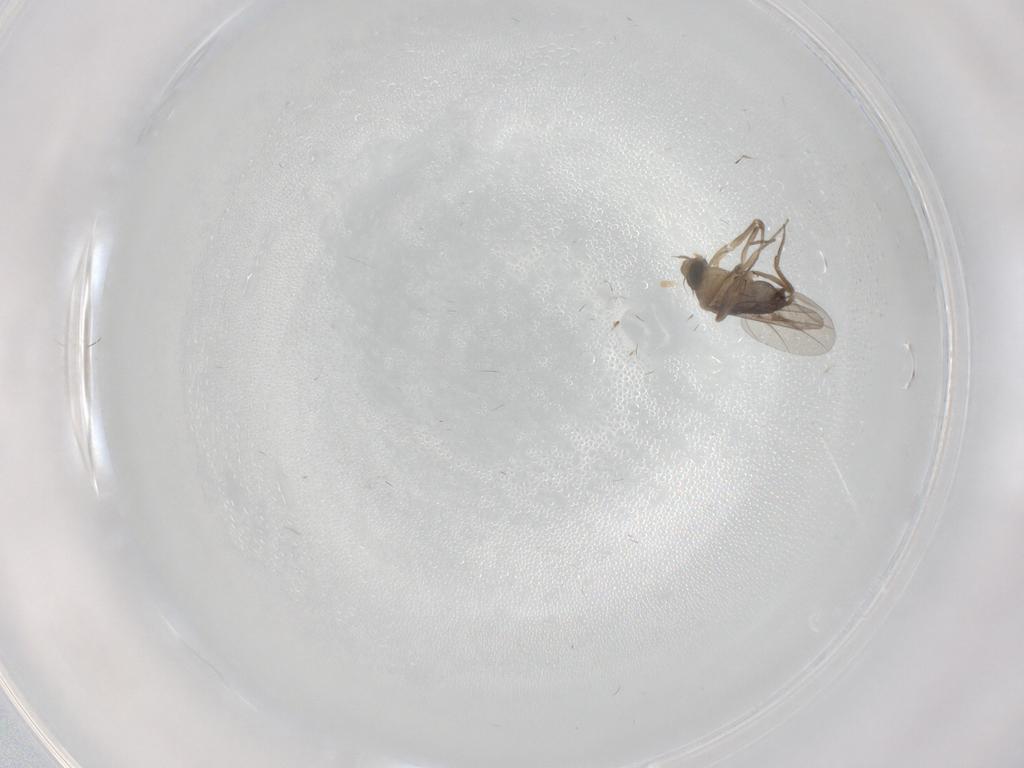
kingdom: Animalia
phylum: Arthropoda
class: Insecta
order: Diptera
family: Phoridae
